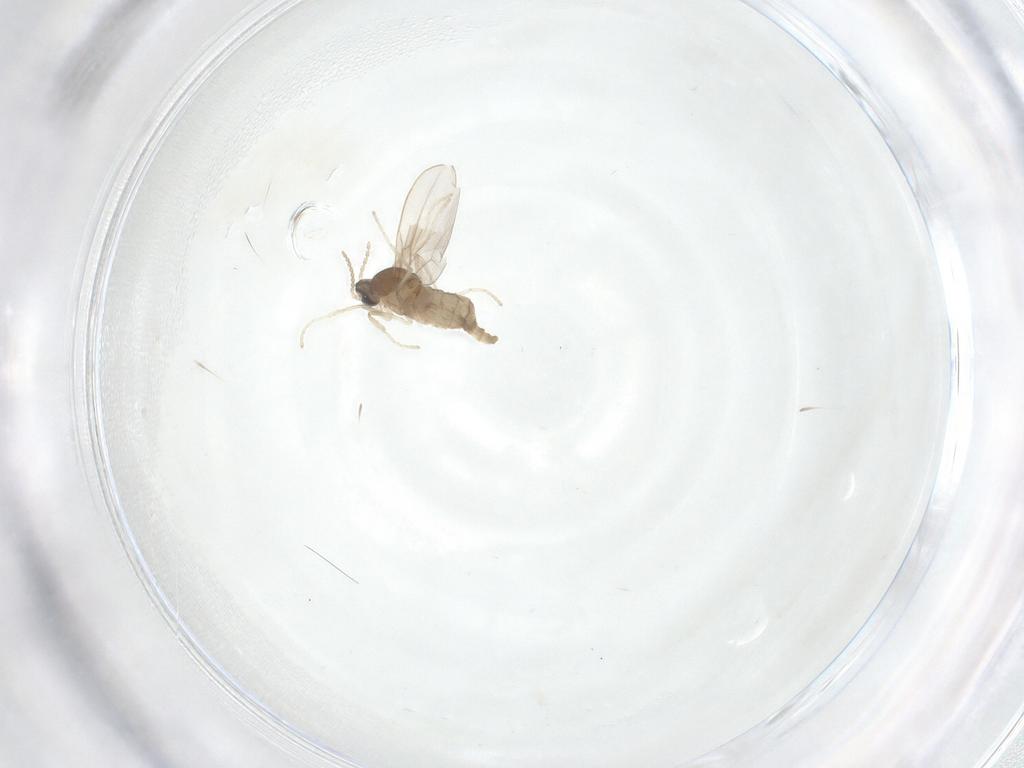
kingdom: Animalia
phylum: Arthropoda
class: Insecta
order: Diptera
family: Cecidomyiidae
